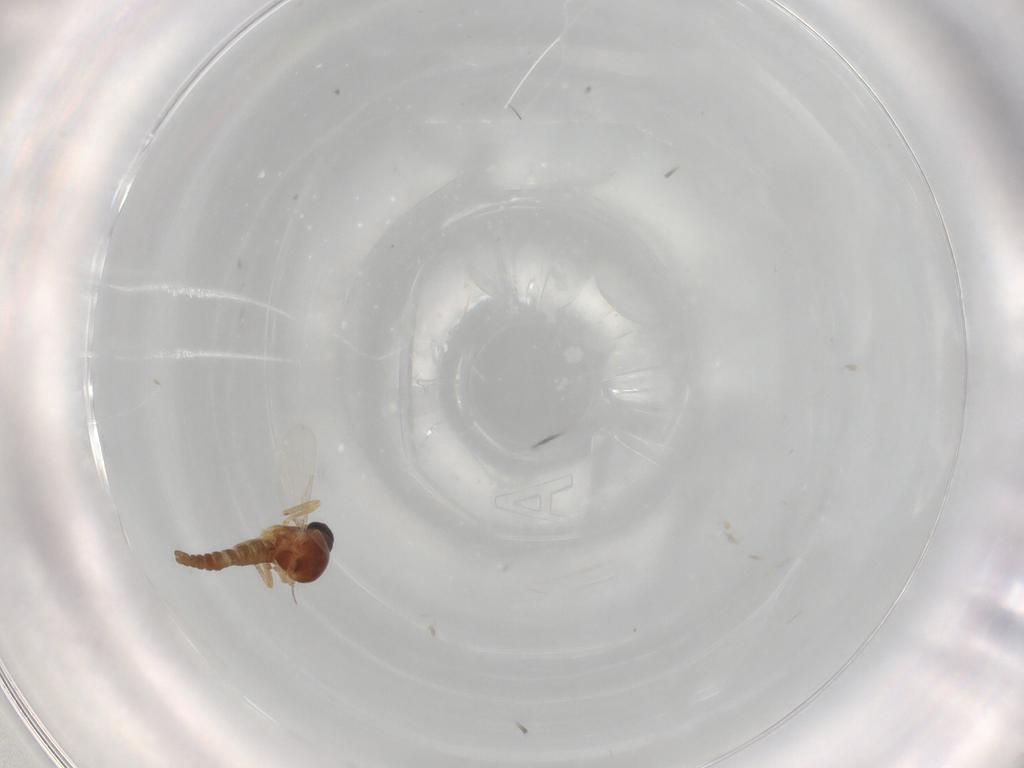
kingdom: Animalia
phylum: Arthropoda
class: Insecta
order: Diptera
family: Ceratopogonidae
